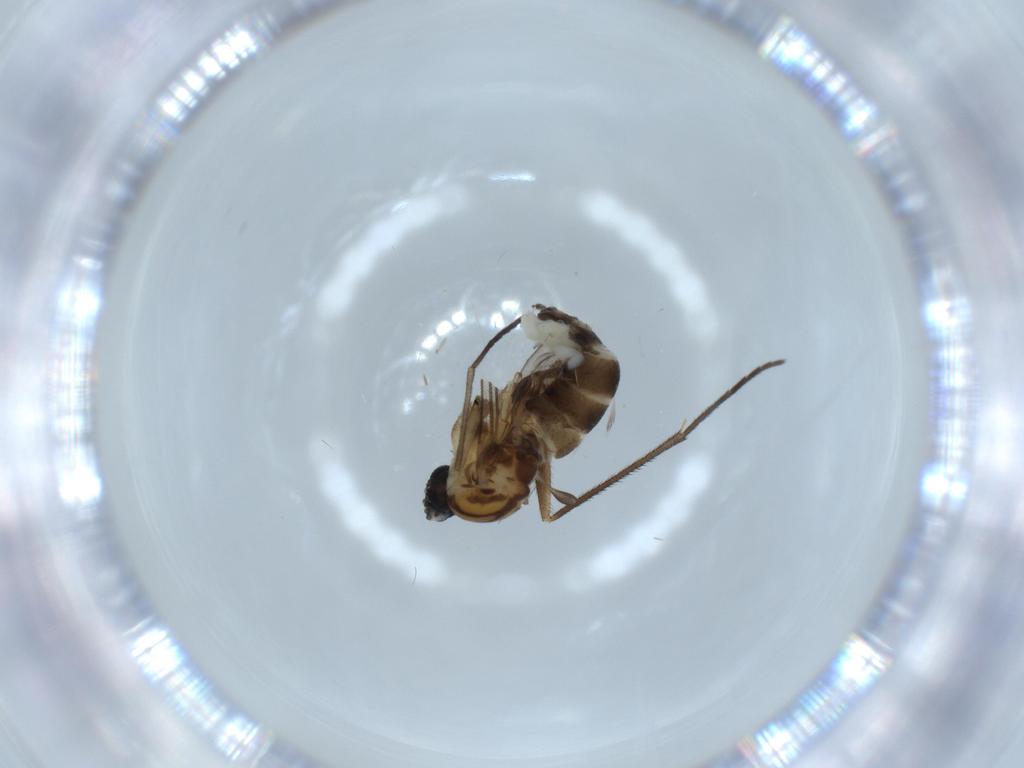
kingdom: Animalia
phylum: Arthropoda
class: Insecta
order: Diptera
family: Sciaridae
